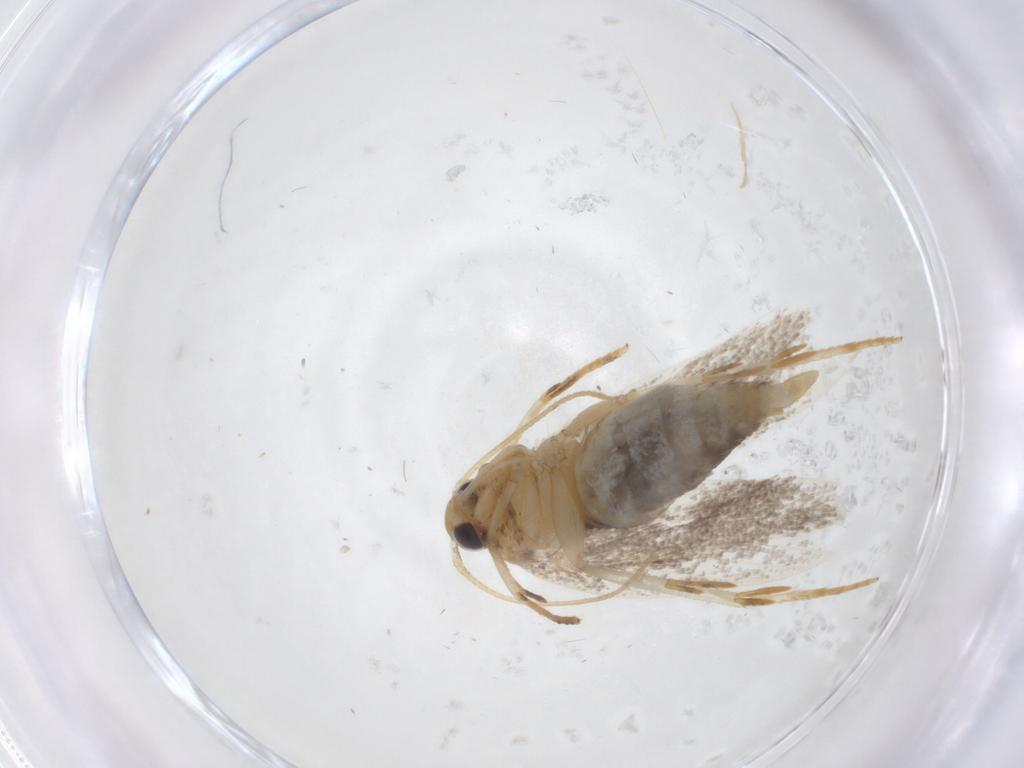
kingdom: Animalia
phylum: Arthropoda
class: Insecta
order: Lepidoptera
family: Oecophoridae
